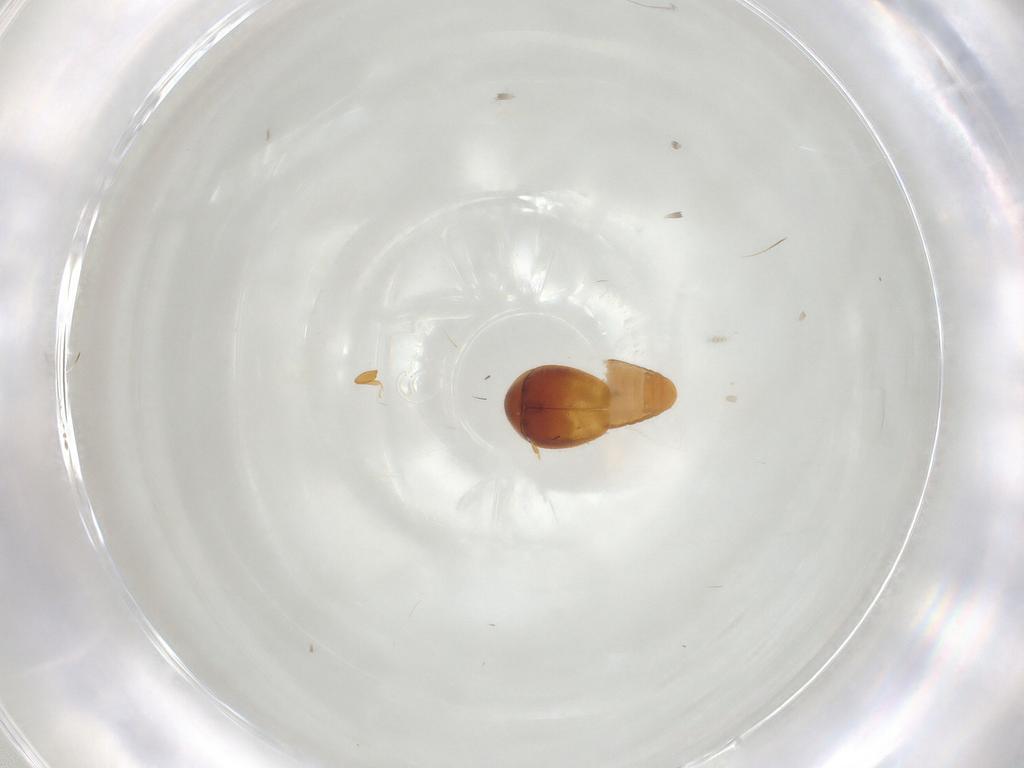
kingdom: Animalia
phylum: Arthropoda
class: Insecta
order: Coleoptera
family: Corylophidae
